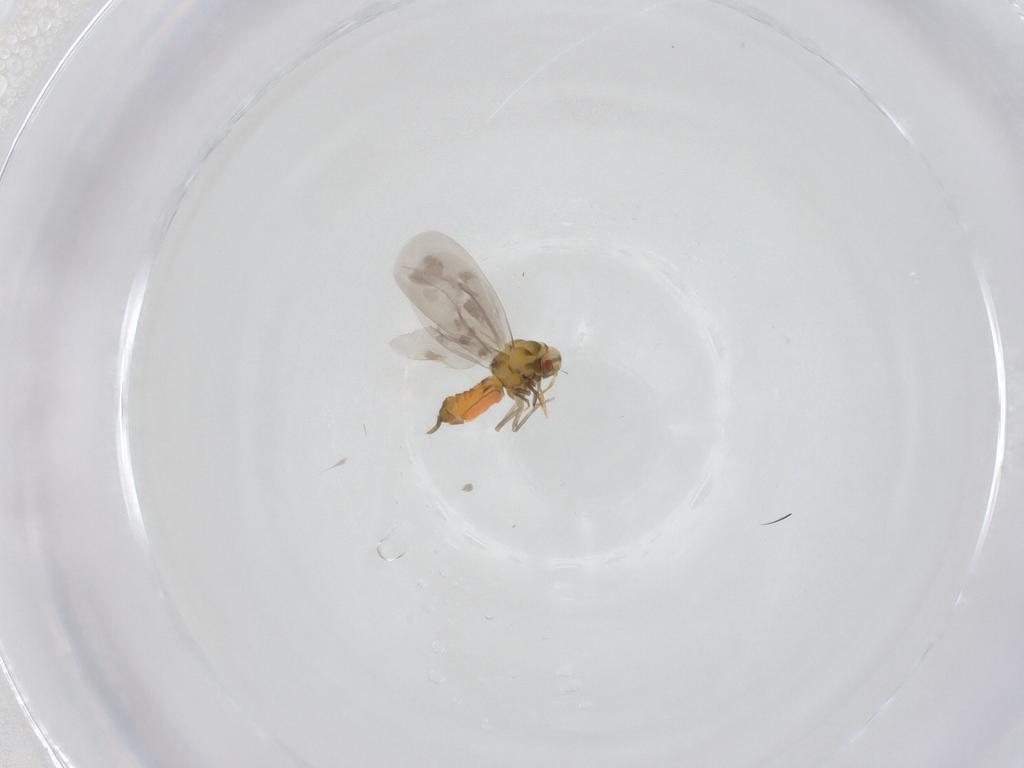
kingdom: Animalia
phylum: Arthropoda
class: Insecta
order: Hemiptera
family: Aleyrodidae
